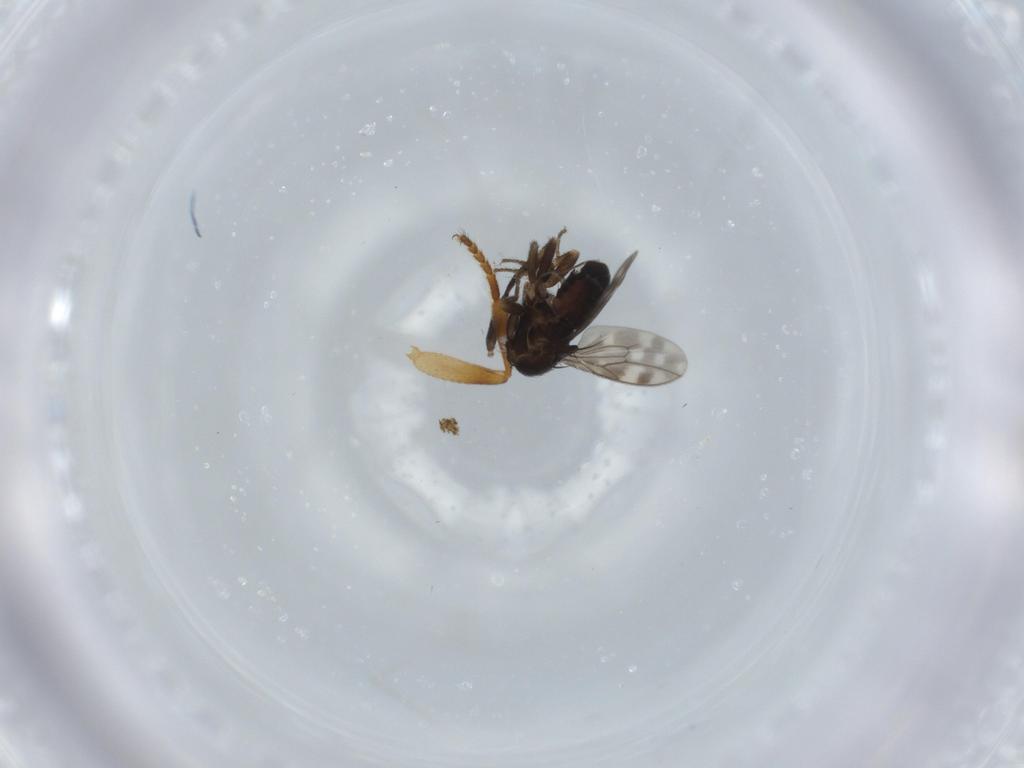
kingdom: Animalia
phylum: Arthropoda
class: Insecta
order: Diptera
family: Sphaeroceridae
